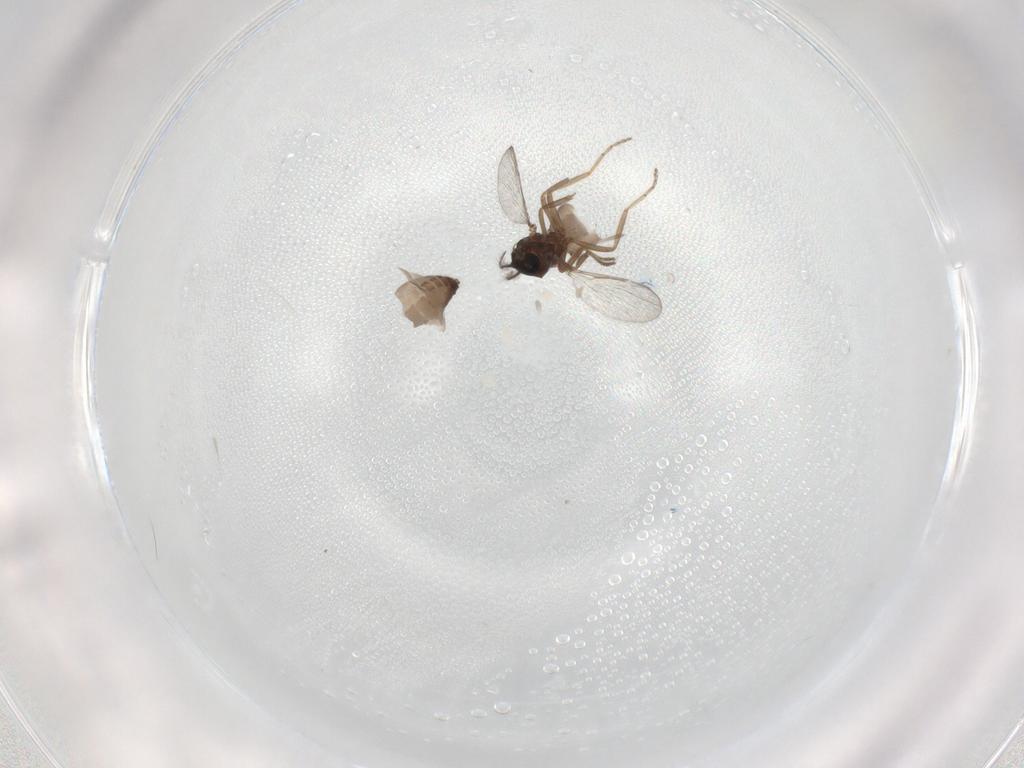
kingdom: Animalia
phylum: Arthropoda
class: Insecta
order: Diptera
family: Ceratopogonidae
